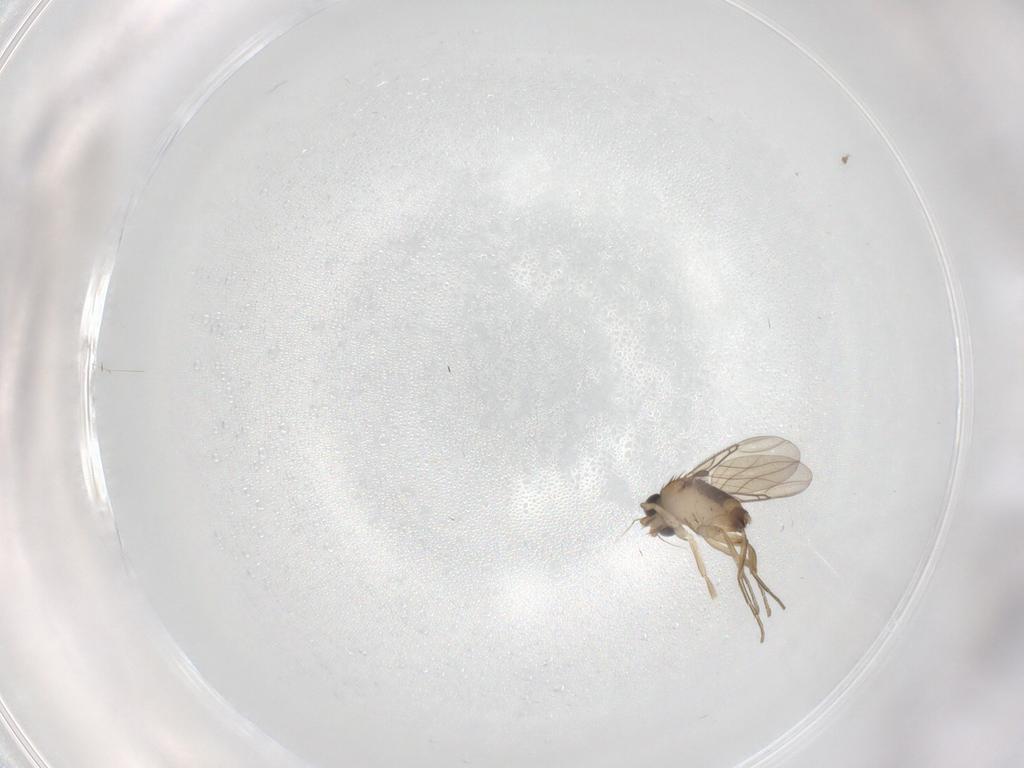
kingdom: Animalia
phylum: Arthropoda
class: Insecta
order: Diptera
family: Phoridae
